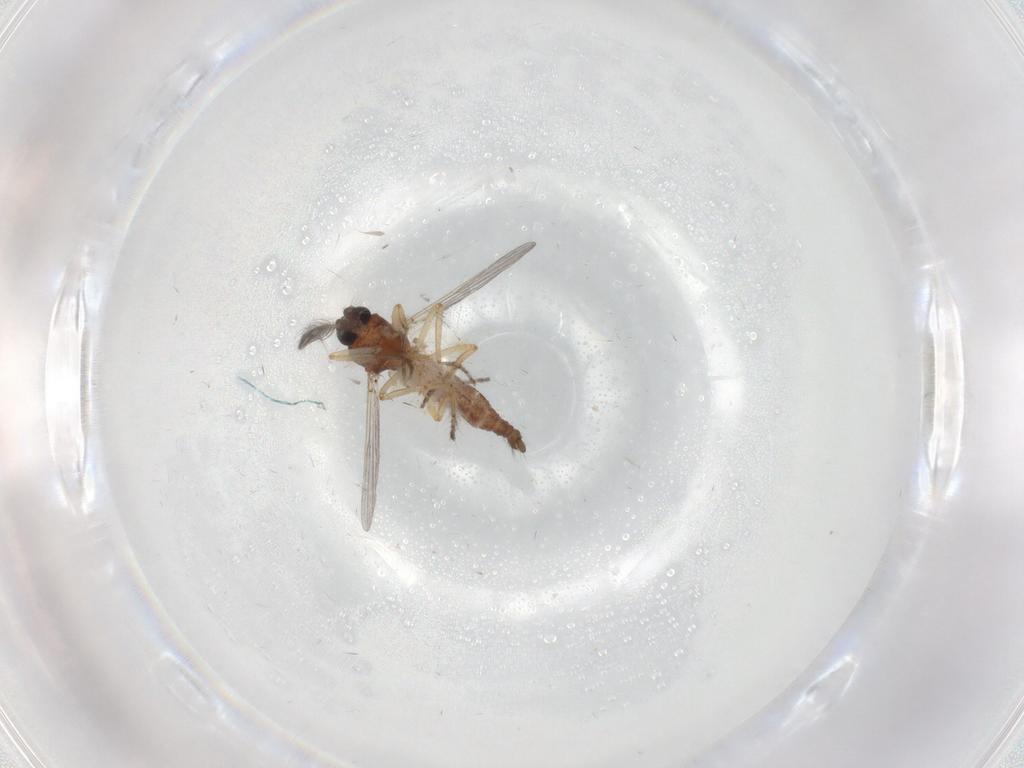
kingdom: Animalia
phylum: Arthropoda
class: Insecta
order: Diptera
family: Ceratopogonidae
